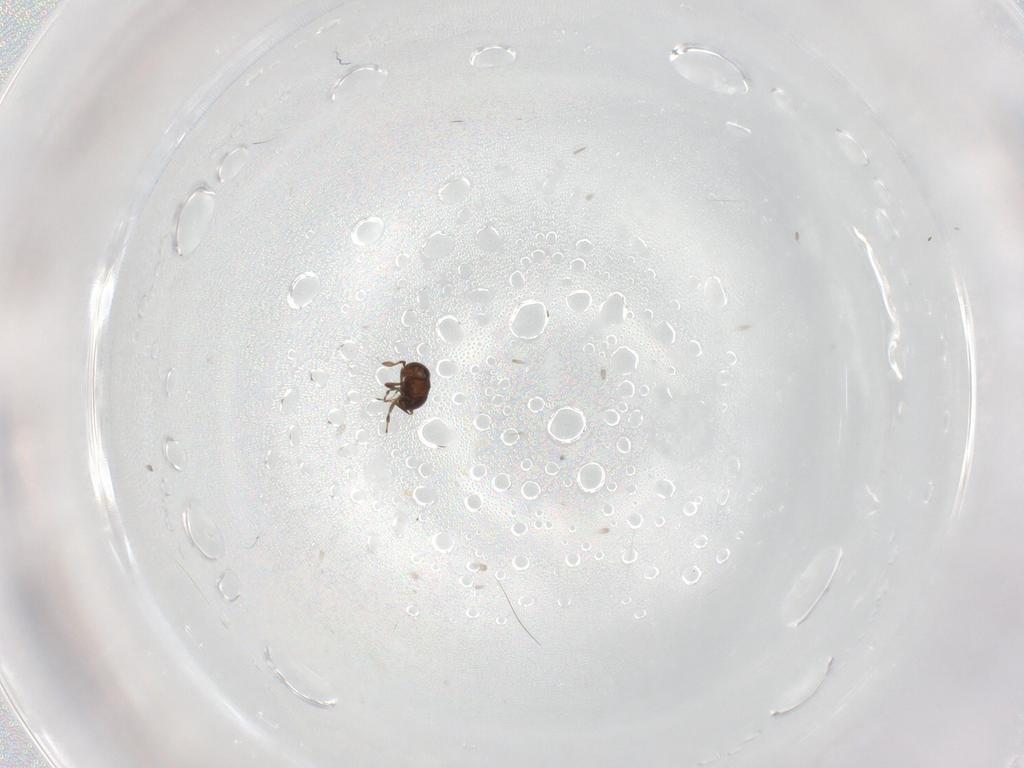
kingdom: Animalia
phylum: Arthropoda
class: Insecta
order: Hymenoptera
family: Scelionidae
